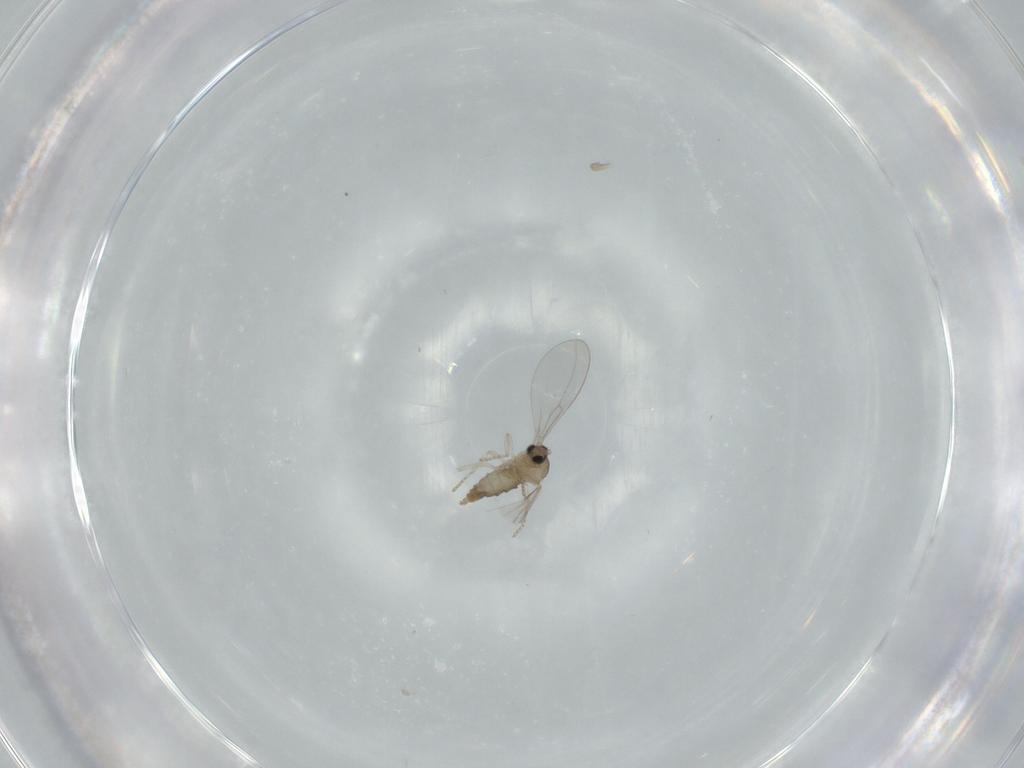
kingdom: Animalia
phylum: Arthropoda
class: Insecta
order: Diptera
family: Cecidomyiidae
